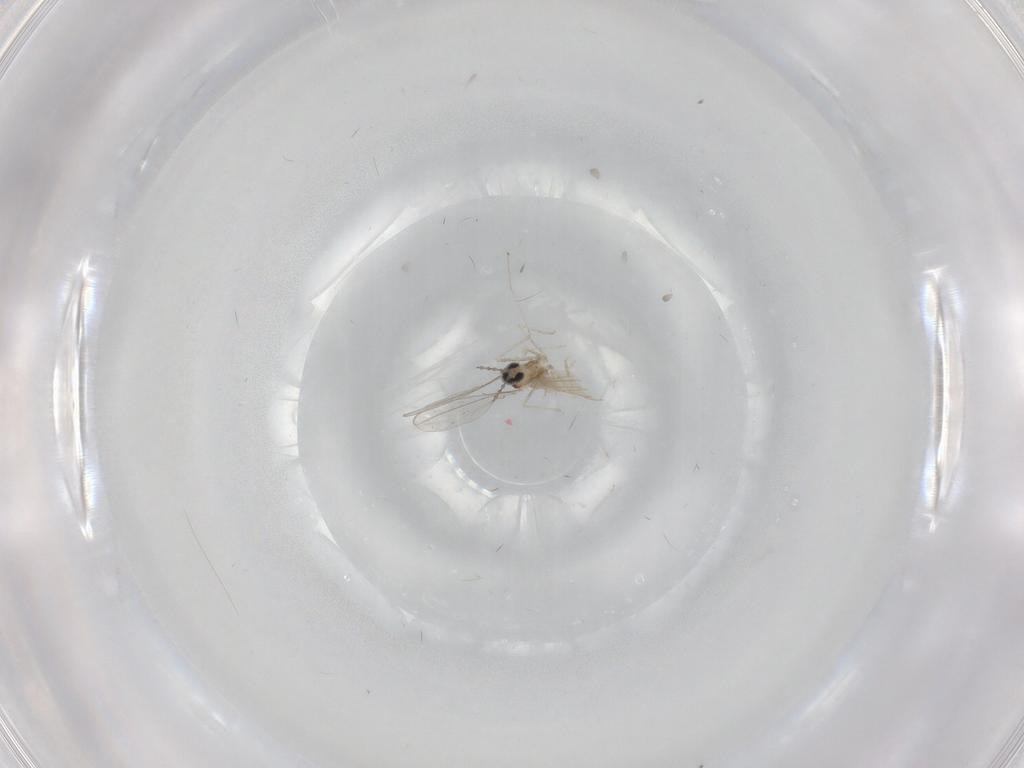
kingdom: Animalia
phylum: Arthropoda
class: Insecta
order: Diptera
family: Cecidomyiidae
